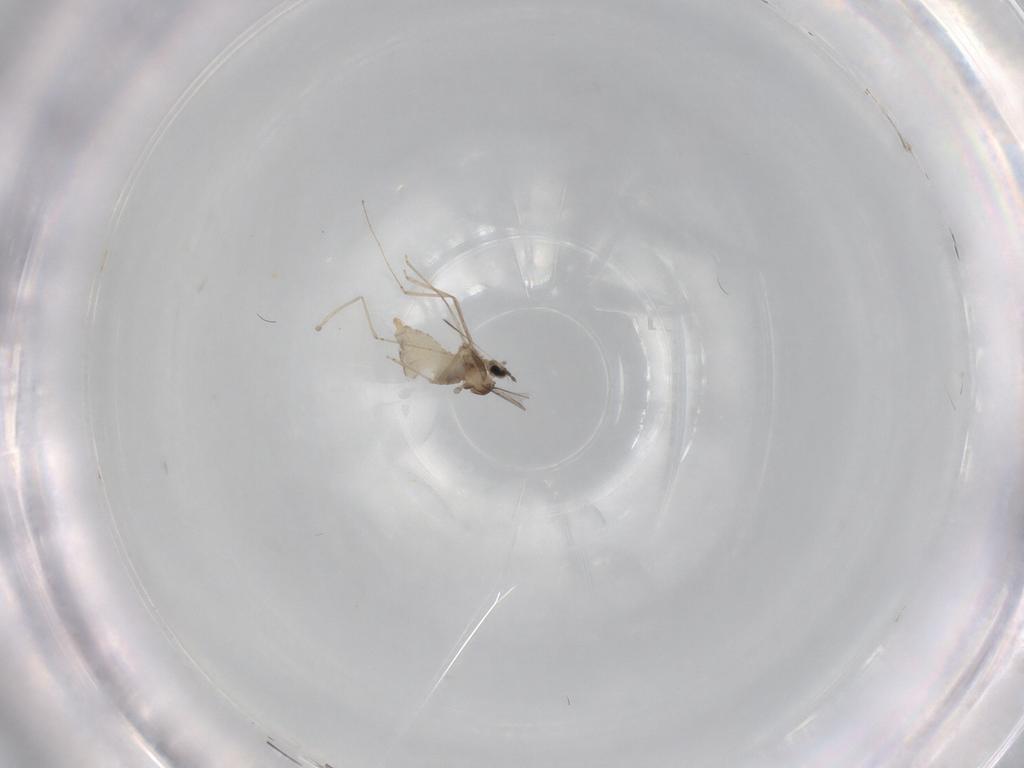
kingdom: Animalia
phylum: Arthropoda
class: Insecta
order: Diptera
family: Cecidomyiidae
